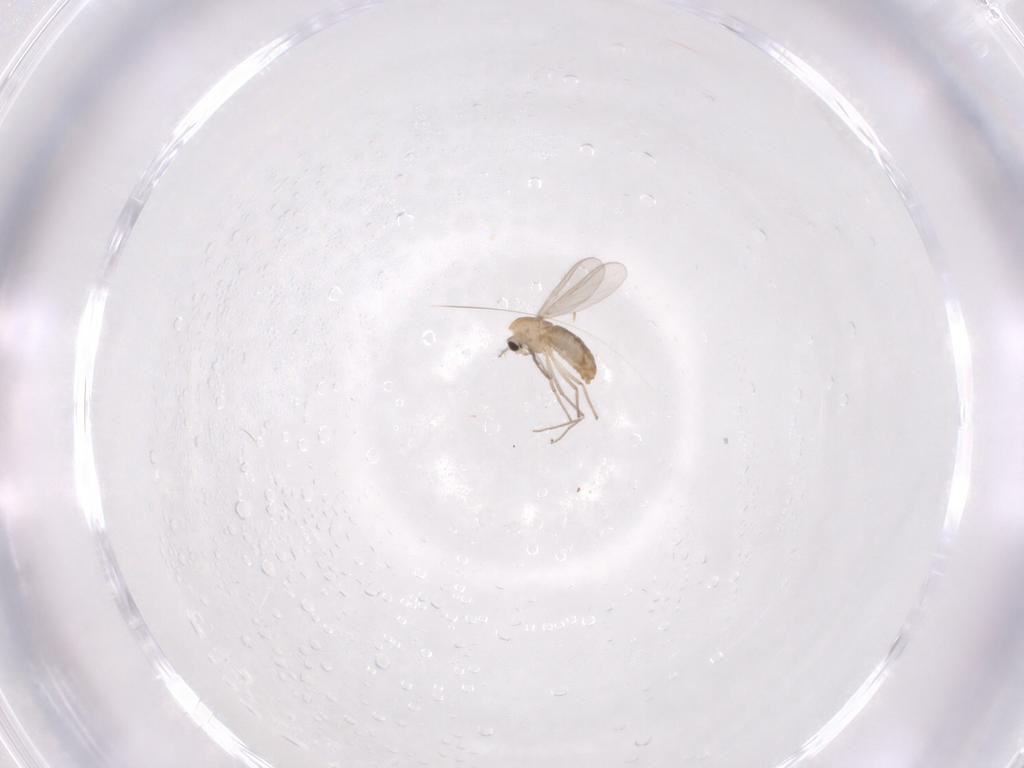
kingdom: Animalia
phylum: Arthropoda
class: Insecta
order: Diptera
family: Chironomidae
